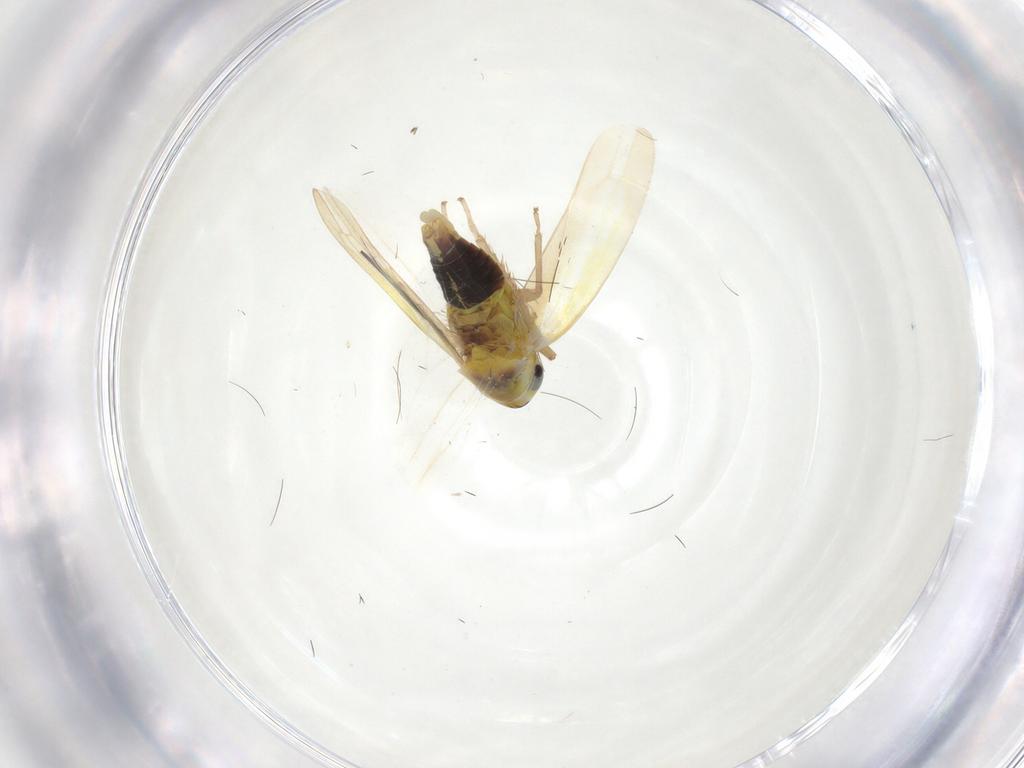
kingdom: Animalia
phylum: Arthropoda
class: Insecta
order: Hemiptera
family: Cicadellidae
